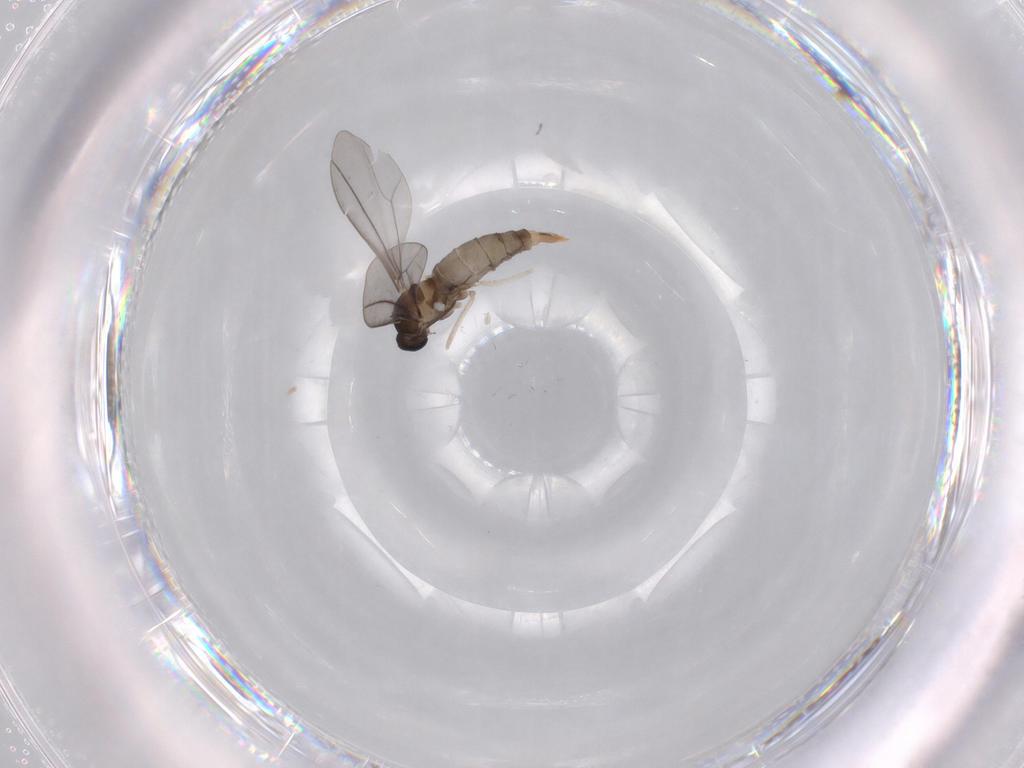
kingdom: Animalia
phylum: Arthropoda
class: Insecta
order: Diptera
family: Cecidomyiidae
